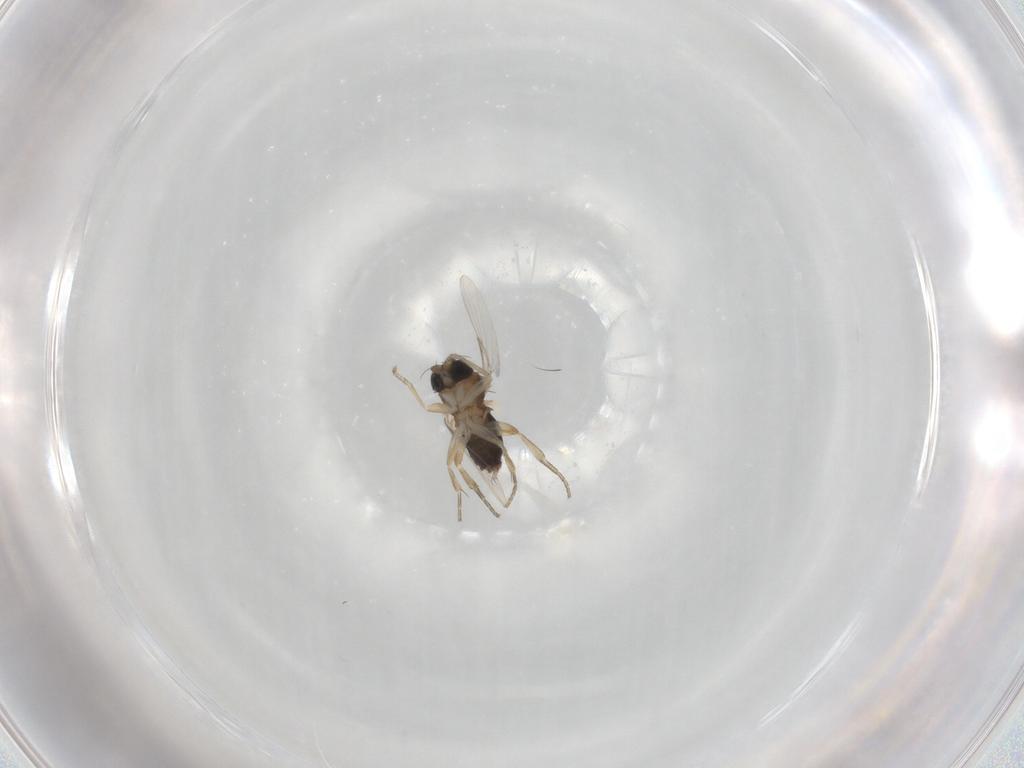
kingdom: Animalia
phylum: Arthropoda
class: Insecta
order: Diptera
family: Phoridae
